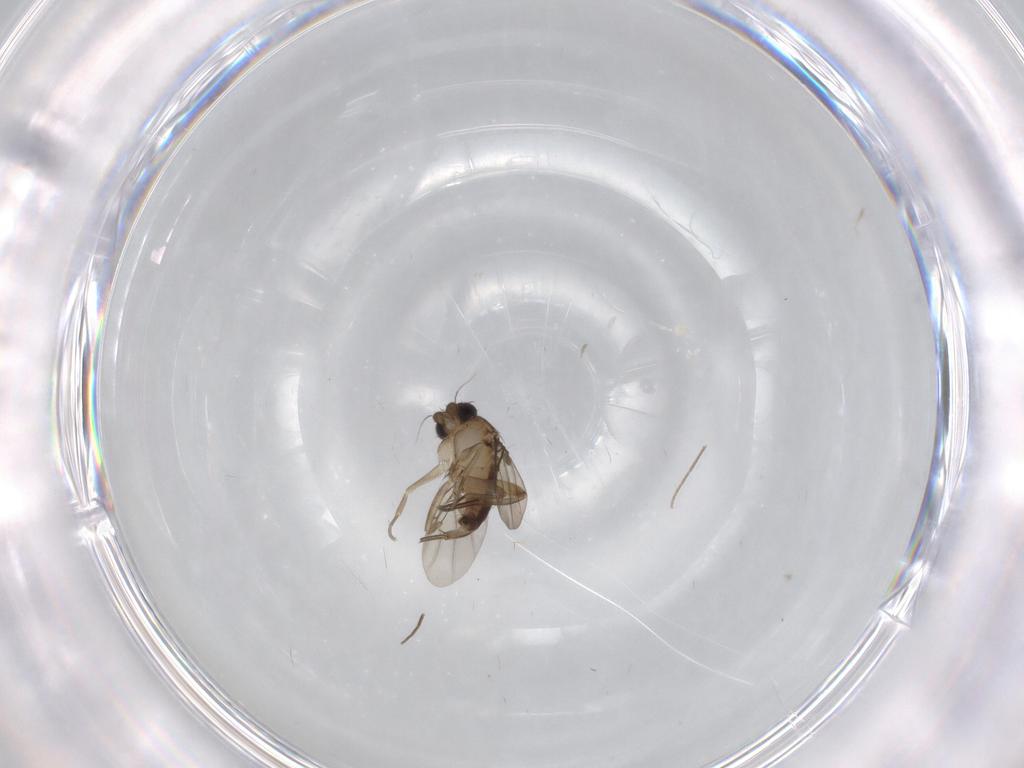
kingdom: Animalia
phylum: Arthropoda
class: Insecta
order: Diptera
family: Phoridae
